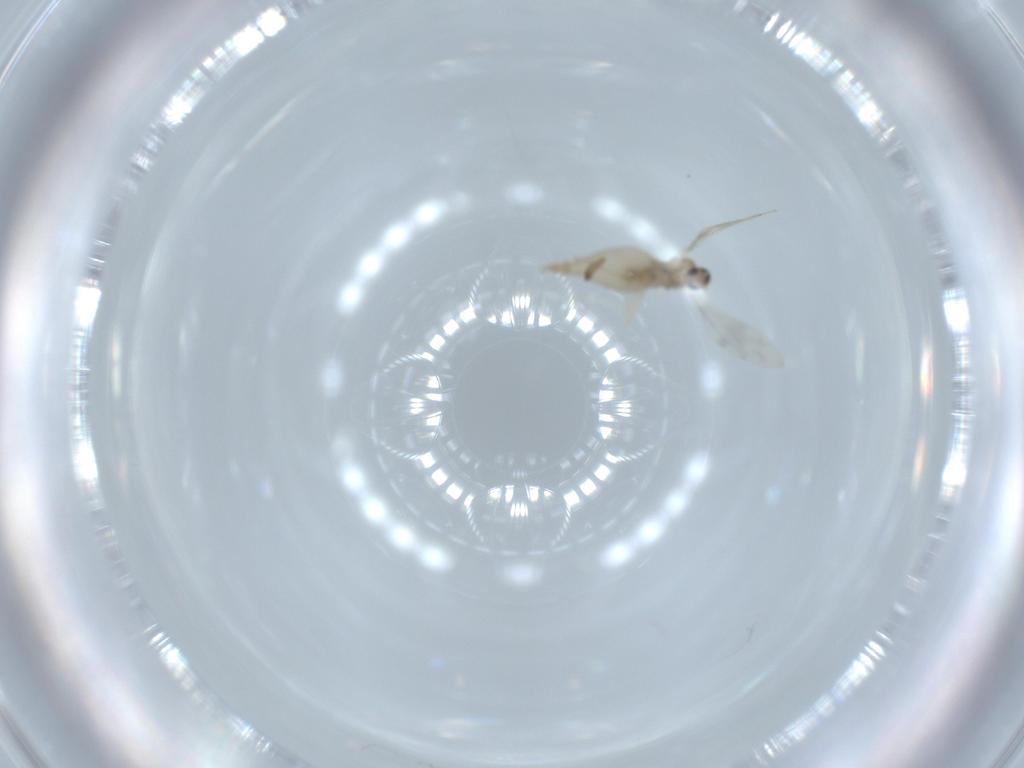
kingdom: Animalia
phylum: Arthropoda
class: Insecta
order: Diptera
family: Cecidomyiidae
